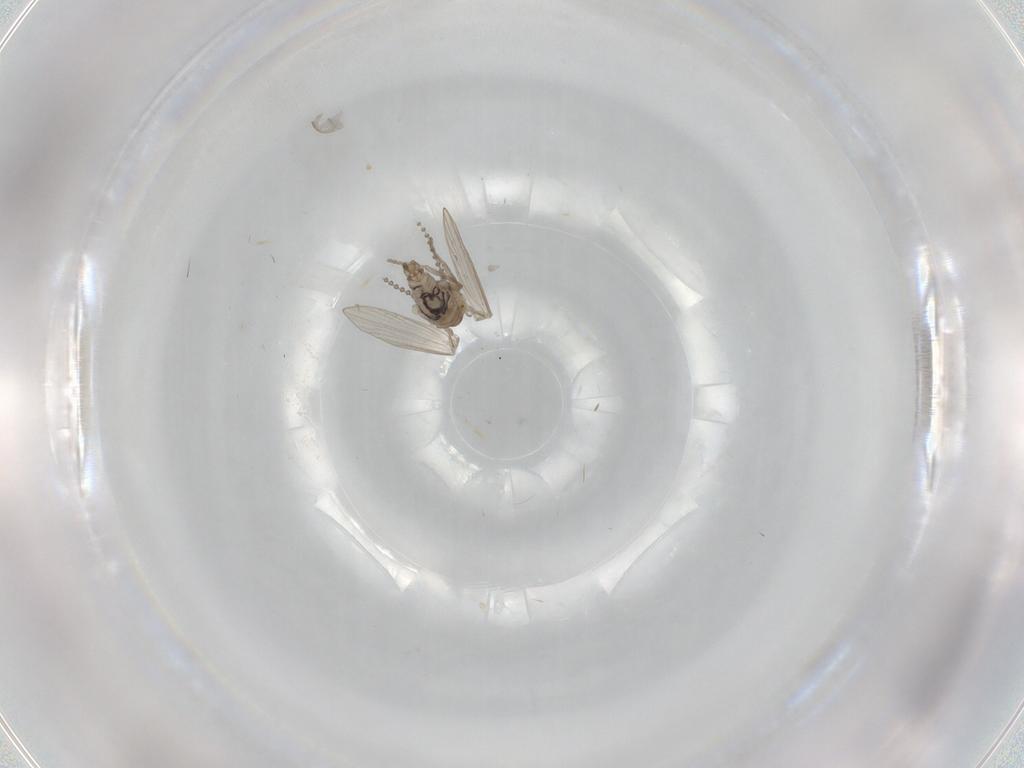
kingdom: Animalia
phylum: Arthropoda
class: Insecta
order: Diptera
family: Psychodidae
